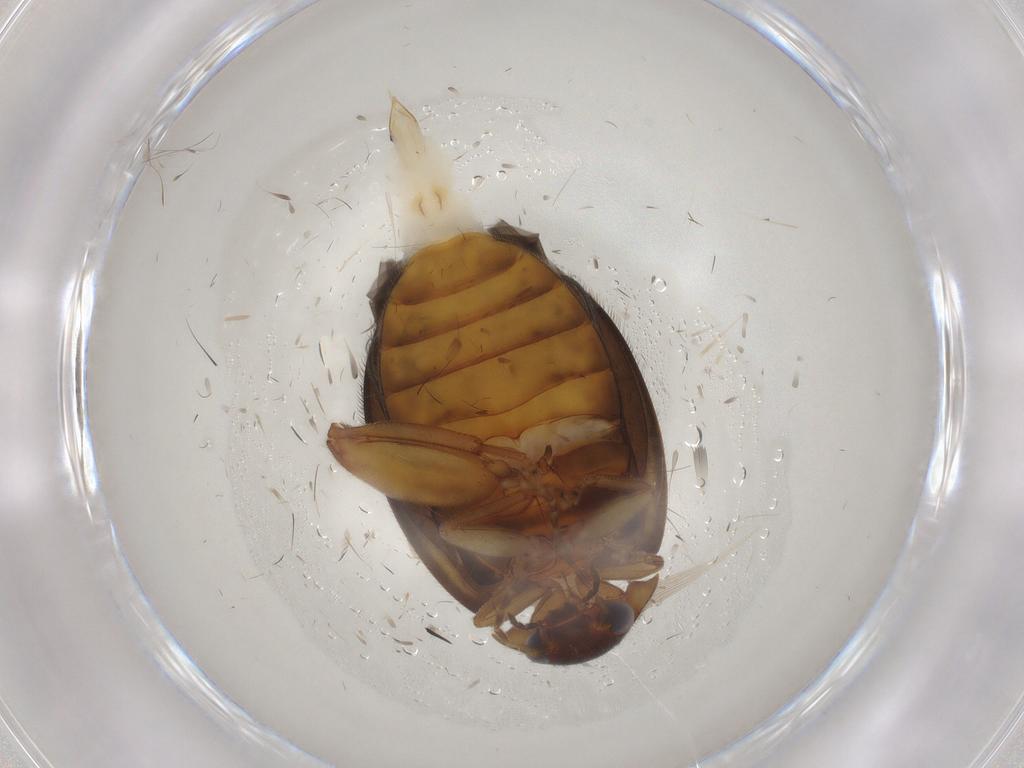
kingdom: Animalia
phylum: Arthropoda
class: Insecta
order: Coleoptera
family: Scirtidae
